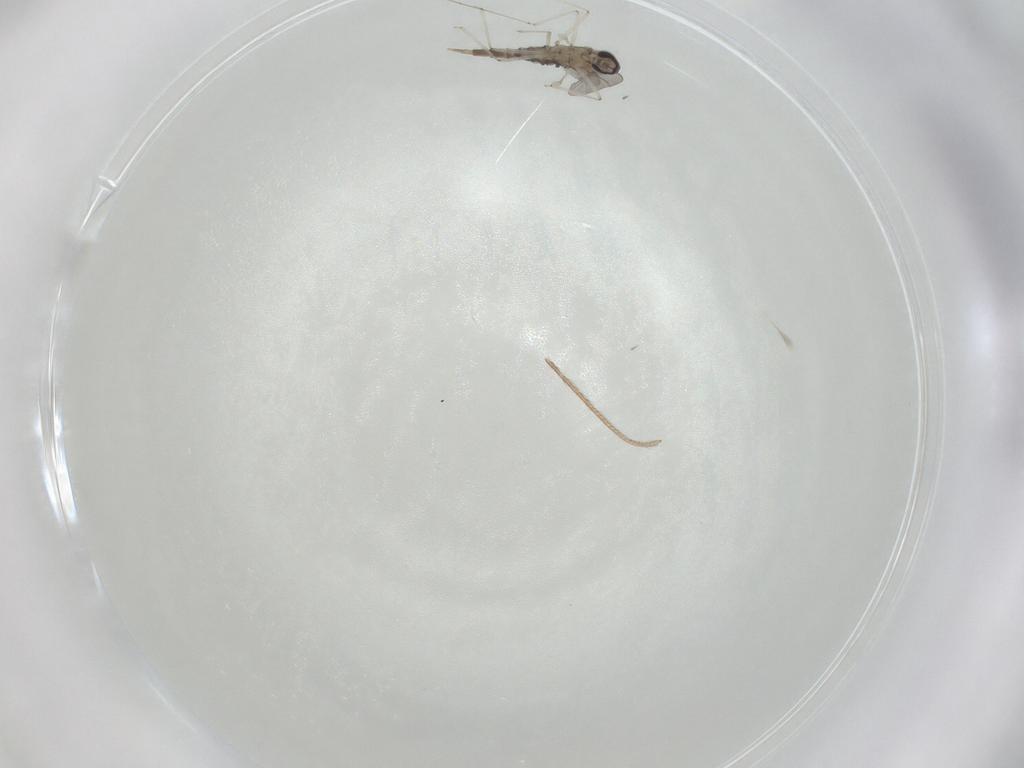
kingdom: Animalia
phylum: Arthropoda
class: Insecta
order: Diptera
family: Cecidomyiidae
